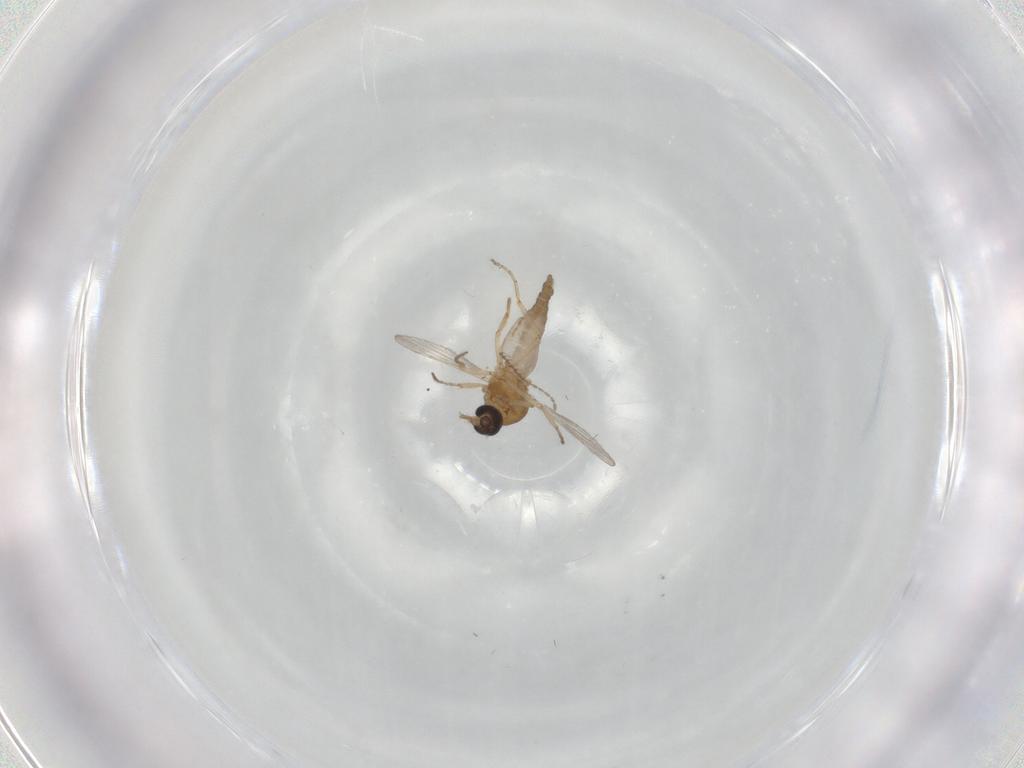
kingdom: Animalia
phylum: Arthropoda
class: Insecta
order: Diptera
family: Ceratopogonidae
